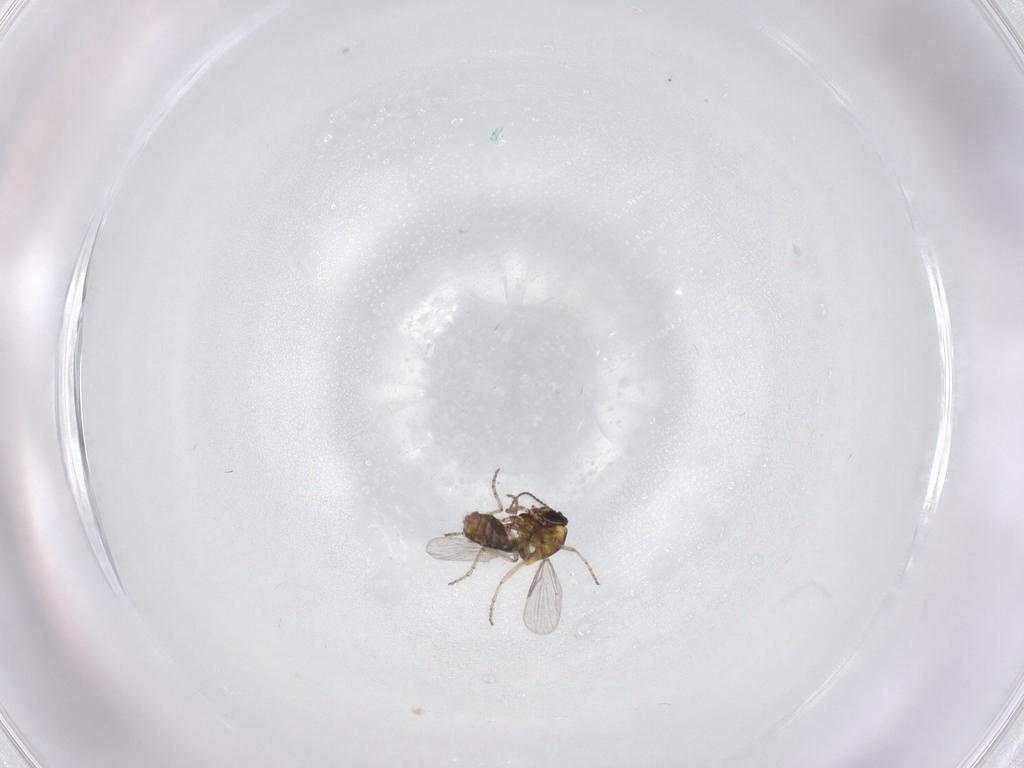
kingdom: Animalia
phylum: Arthropoda
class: Insecta
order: Diptera
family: Ceratopogonidae
